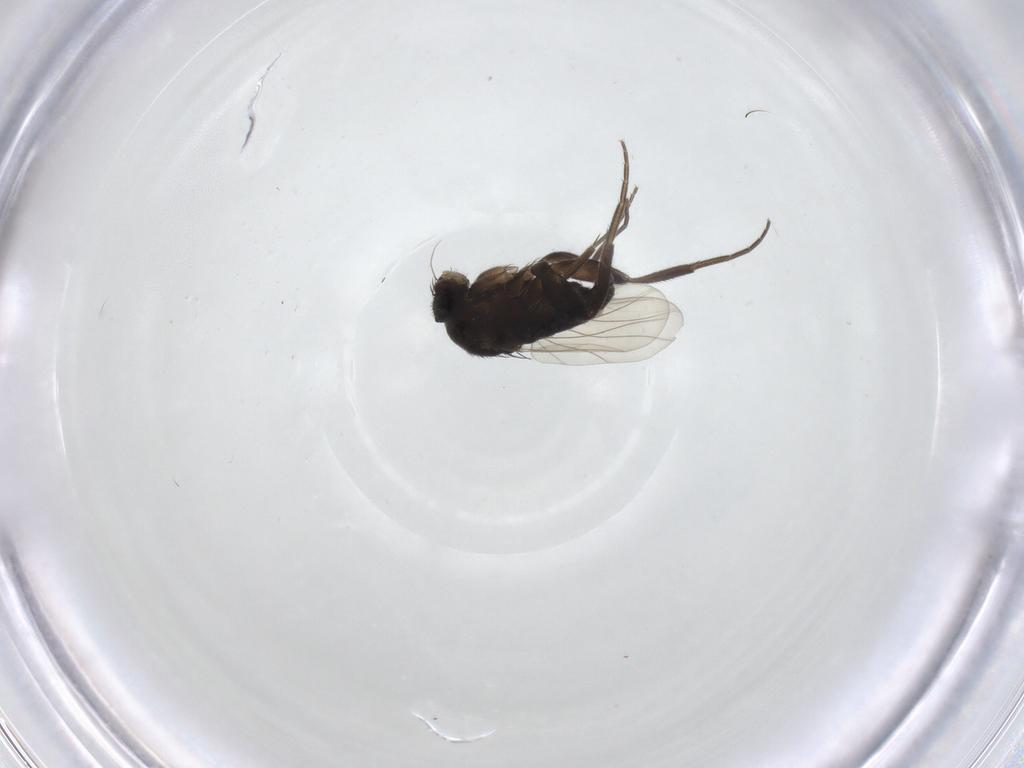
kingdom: Animalia
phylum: Arthropoda
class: Insecta
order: Diptera
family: Phoridae
